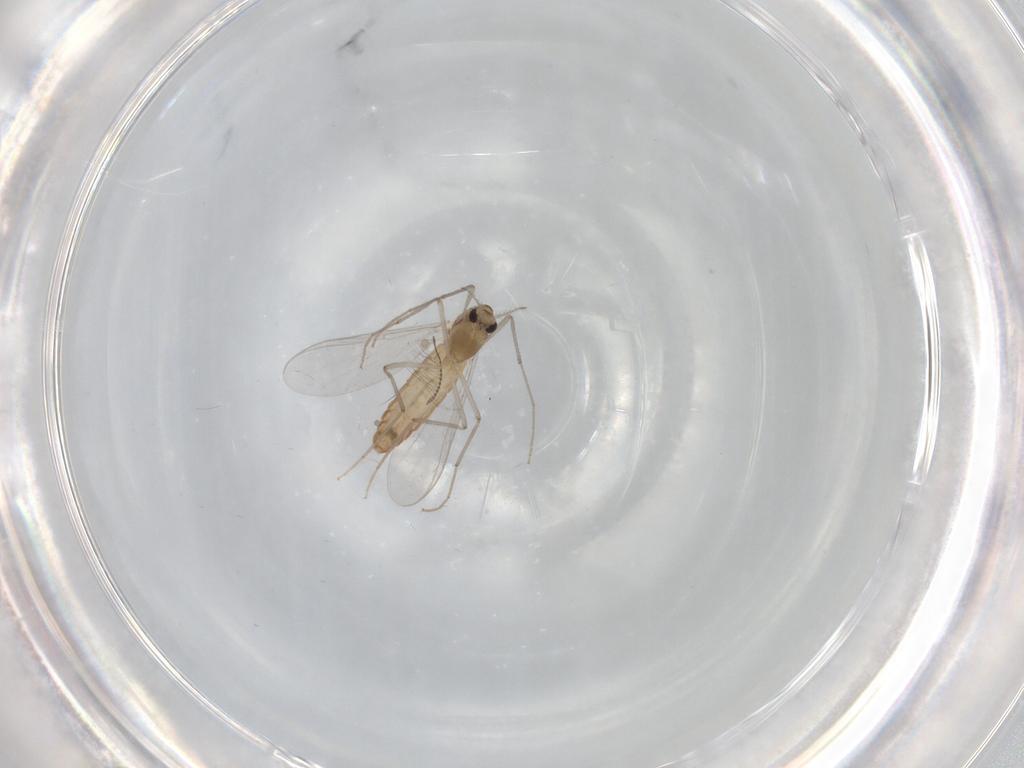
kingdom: Animalia
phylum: Arthropoda
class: Insecta
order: Diptera
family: Chironomidae
